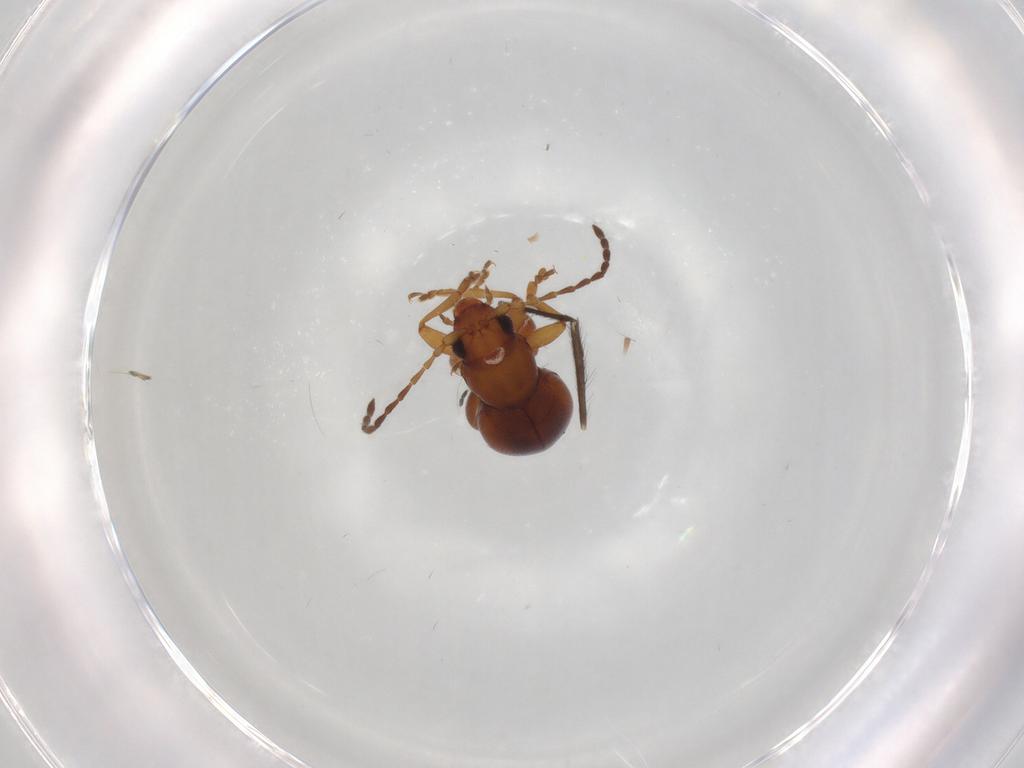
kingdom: Animalia
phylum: Arthropoda
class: Insecta
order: Coleoptera
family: Chrysomelidae
